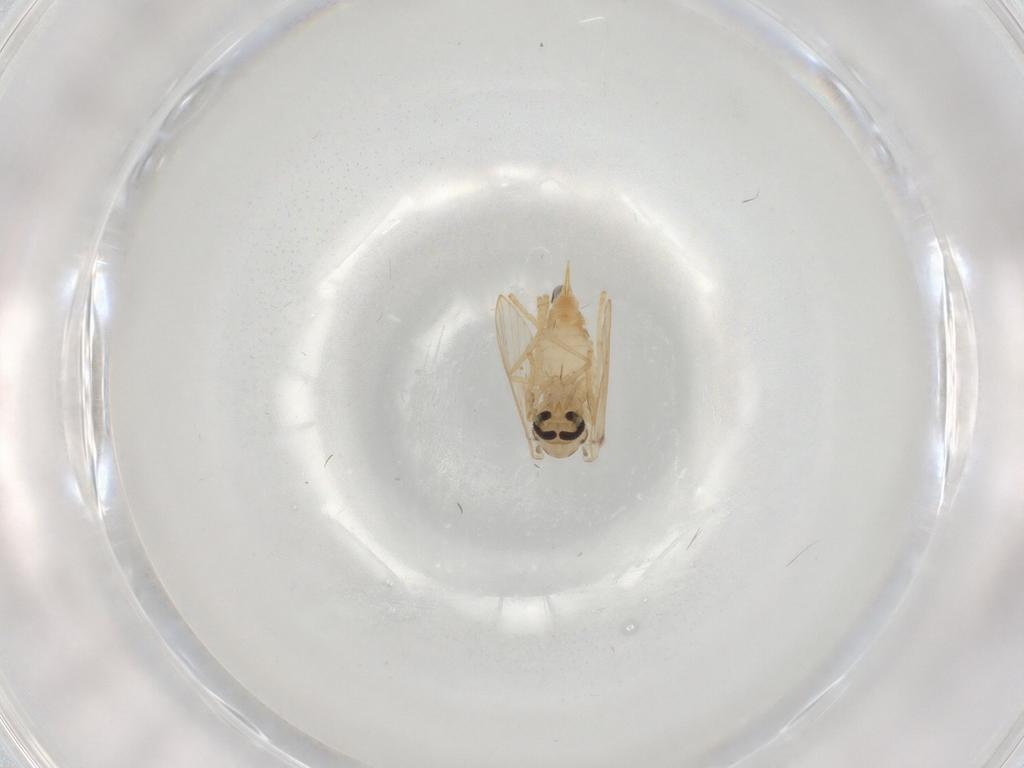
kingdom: Animalia
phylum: Arthropoda
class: Insecta
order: Diptera
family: Psychodidae
